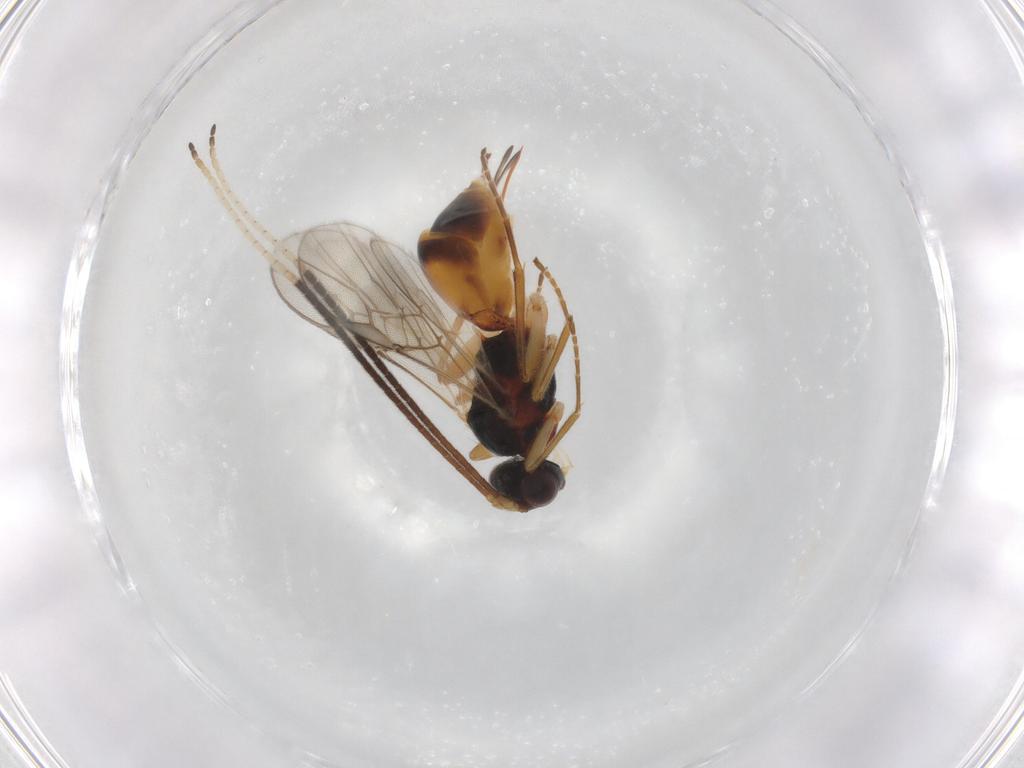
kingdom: Animalia
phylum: Arthropoda
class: Insecta
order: Hymenoptera
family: Braconidae
